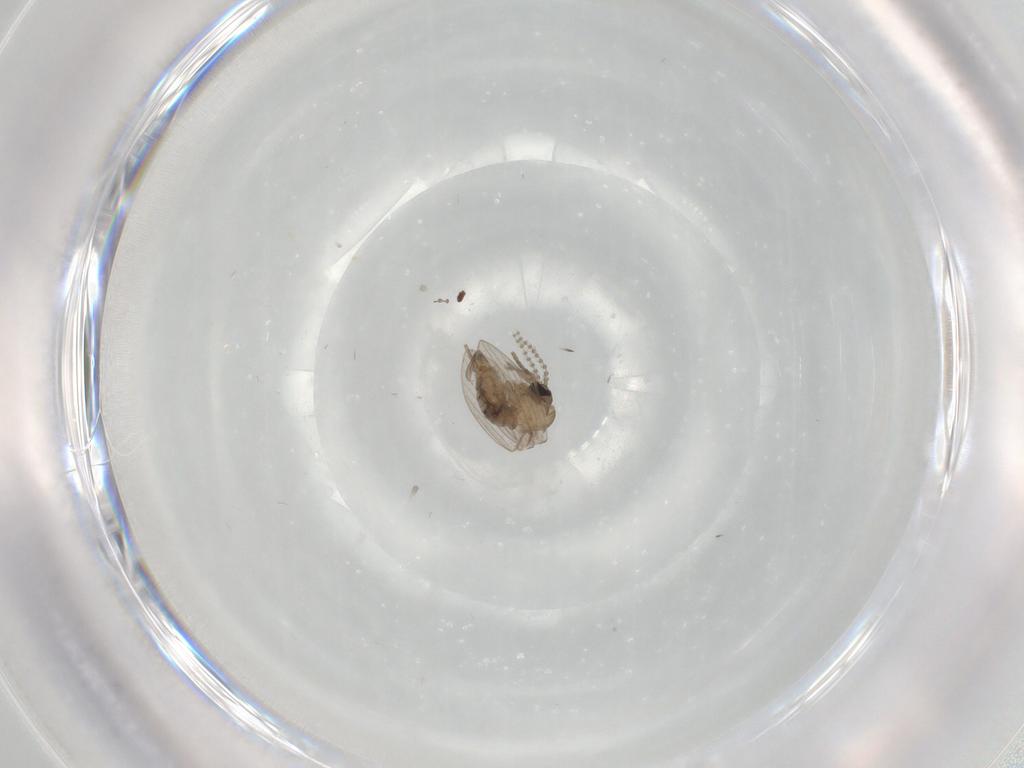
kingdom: Animalia
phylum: Arthropoda
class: Insecta
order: Diptera
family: Psychodidae
